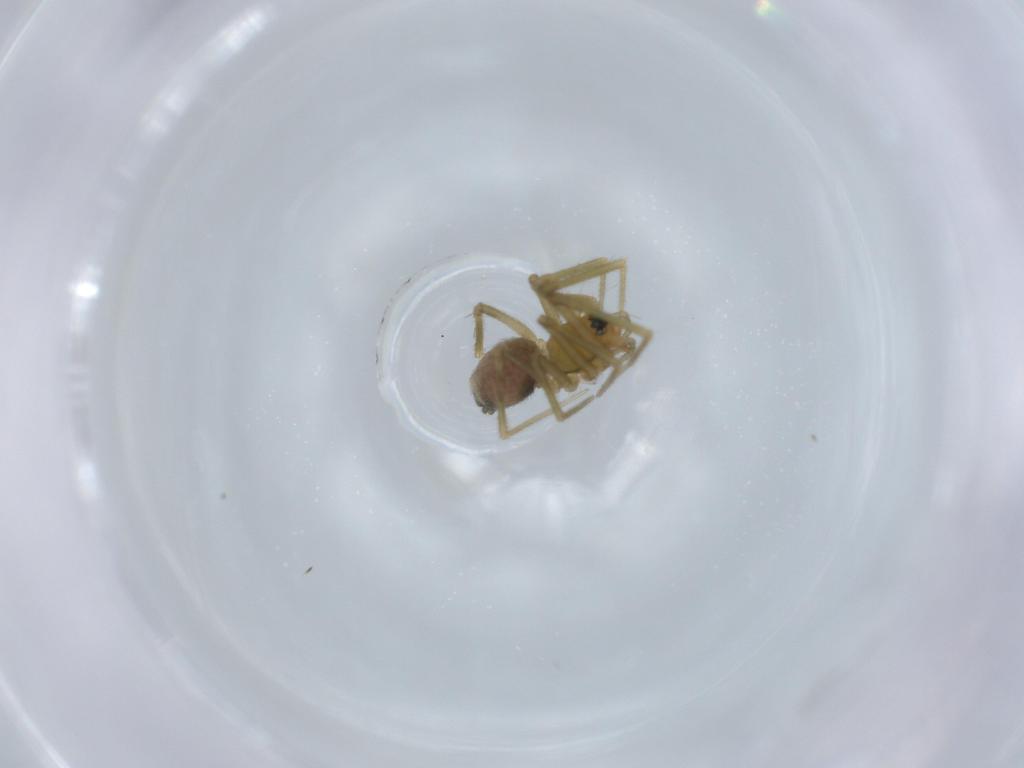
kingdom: Animalia
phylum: Arthropoda
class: Arachnida
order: Araneae
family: Linyphiidae
